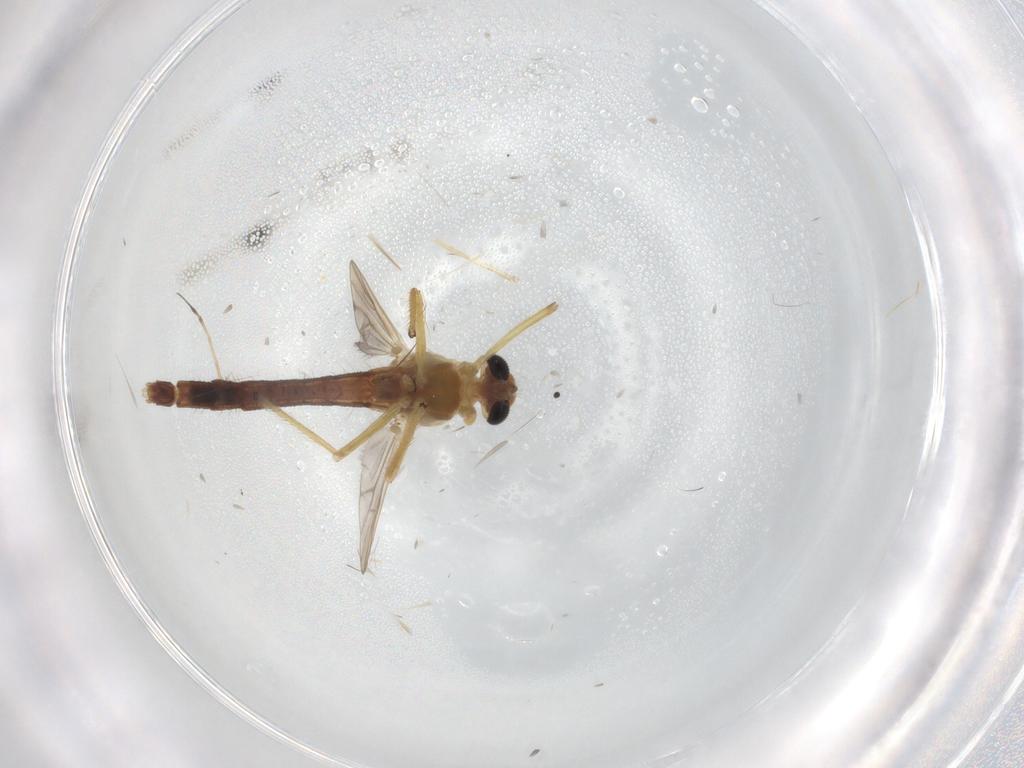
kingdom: Animalia
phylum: Arthropoda
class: Insecta
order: Diptera
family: Chironomidae
